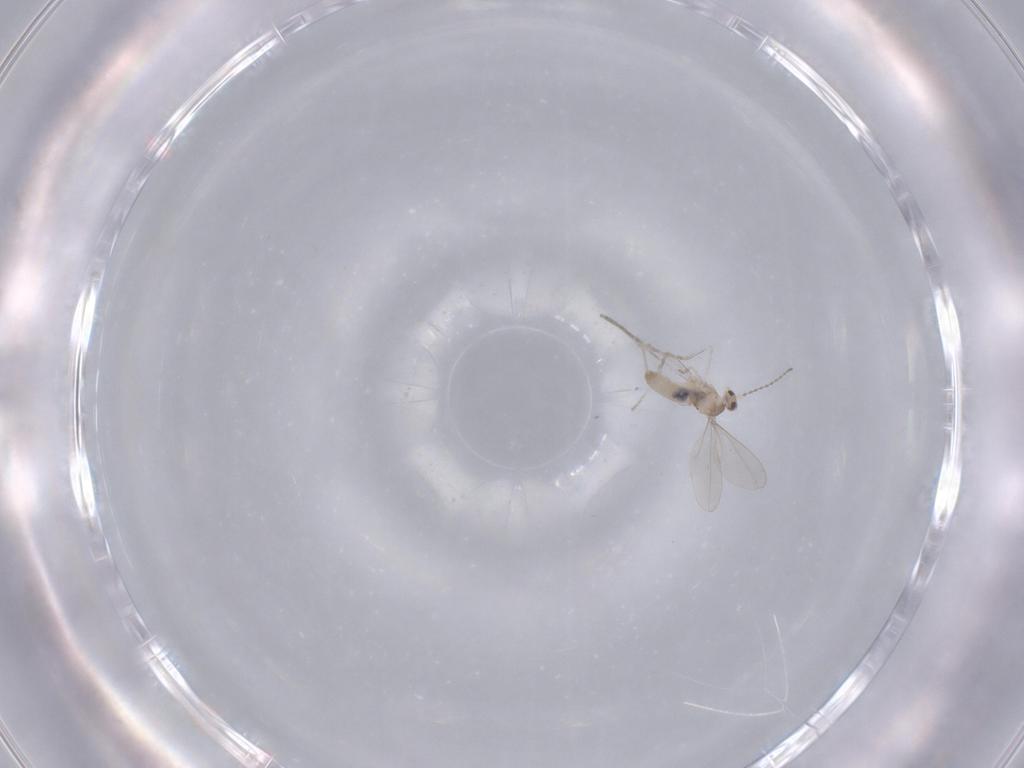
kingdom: Animalia
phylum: Arthropoda
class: Insecta
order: Diptera
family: Cecidomyiidae
